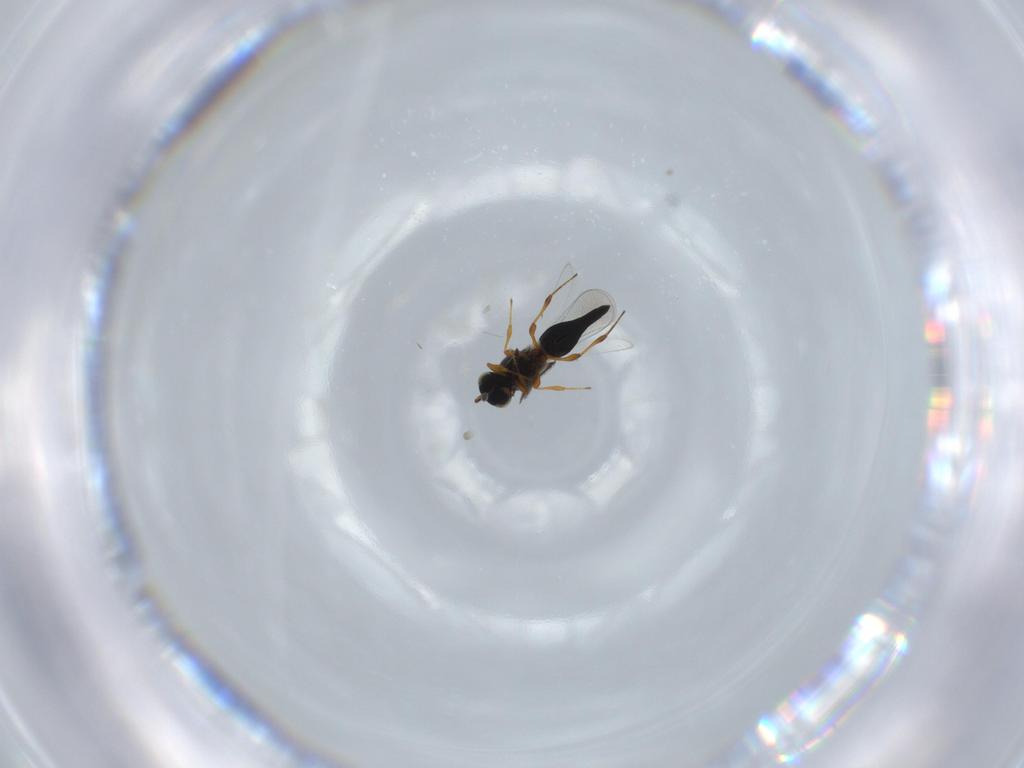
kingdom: Animalia
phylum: Arthropoda
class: Insecta
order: Hymenoptera
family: Platygastridae
